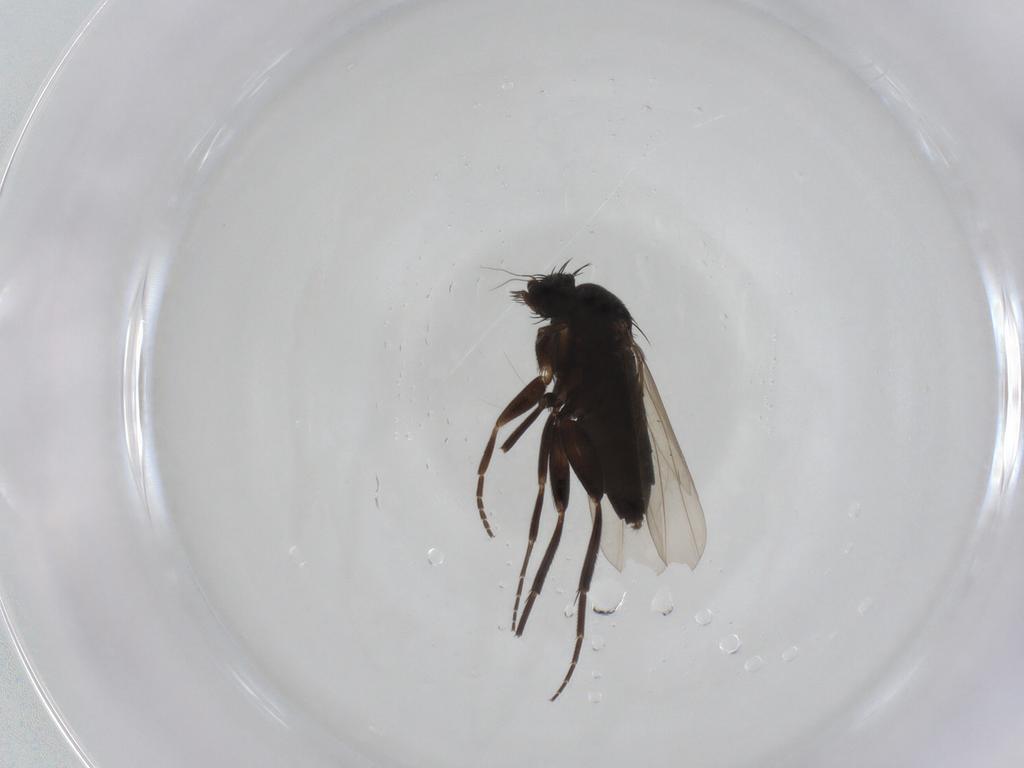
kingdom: Animalia
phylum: Arthropoda
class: Insecta
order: Diptera
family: Phoridae
